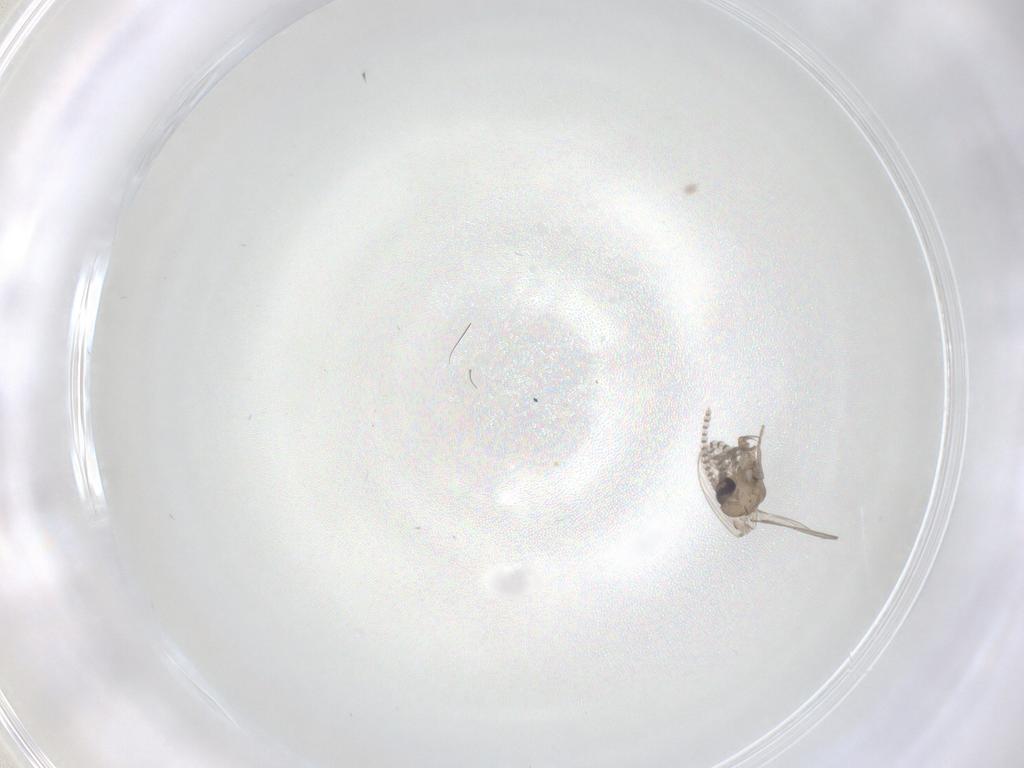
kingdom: Animalia
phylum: Arthropoda
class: Insecta
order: Diptera
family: Psychodidae
